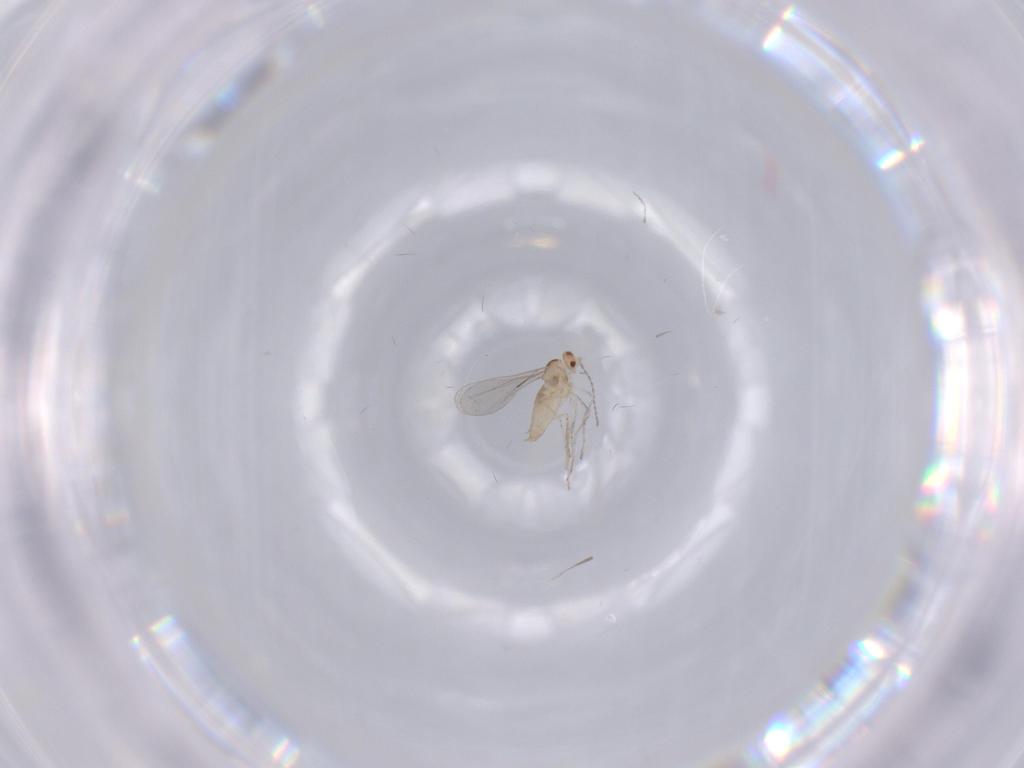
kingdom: Animalia
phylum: Arthropoda
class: Insecta
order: Diptera
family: Cecidomyiidae
